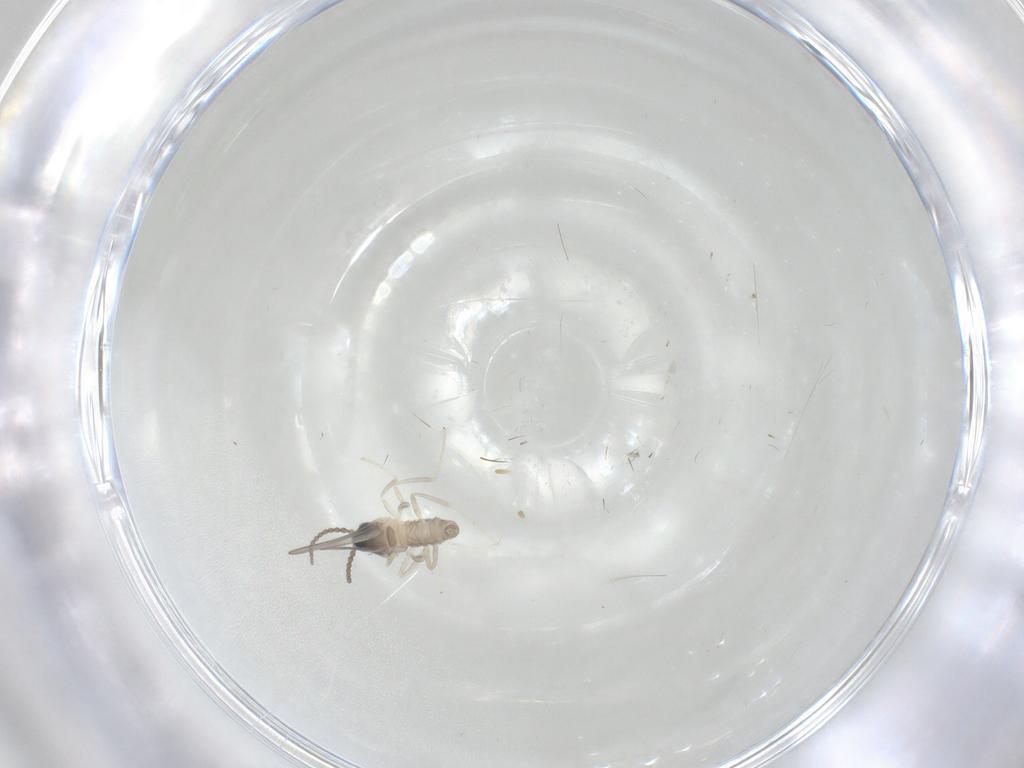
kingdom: Animalia
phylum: Arthropoda
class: Insecta
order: Diptera
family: Cecidomyiidae
